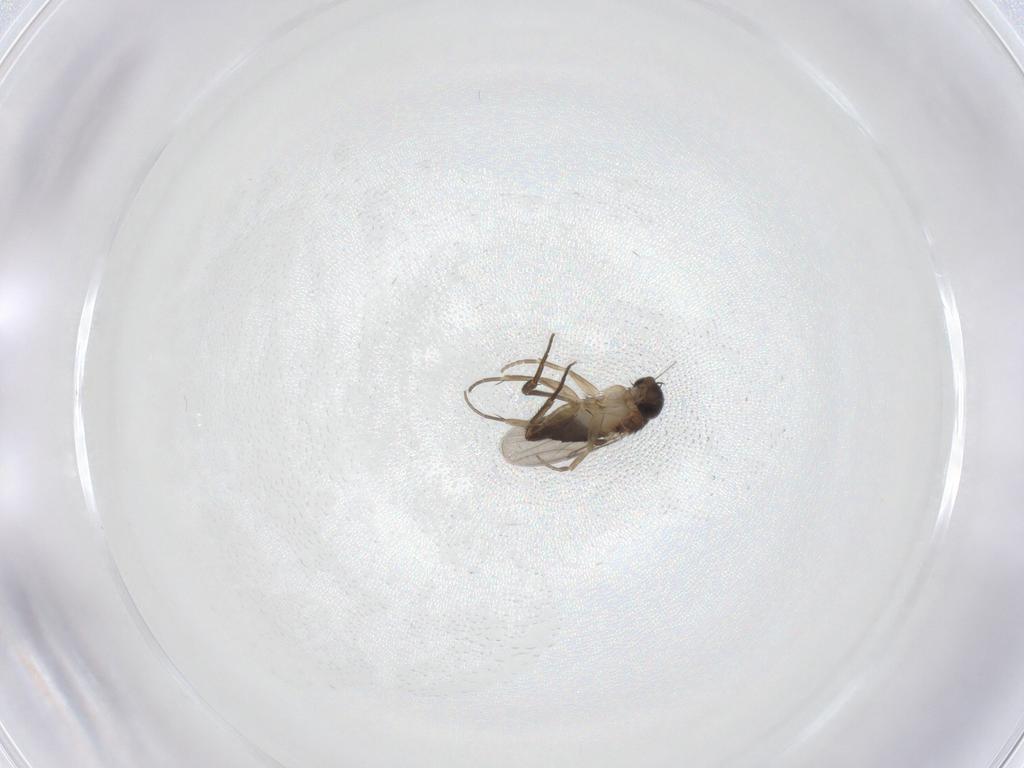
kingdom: Animalia
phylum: Arthropoda
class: Insecta
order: Diptera
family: Phoridae
